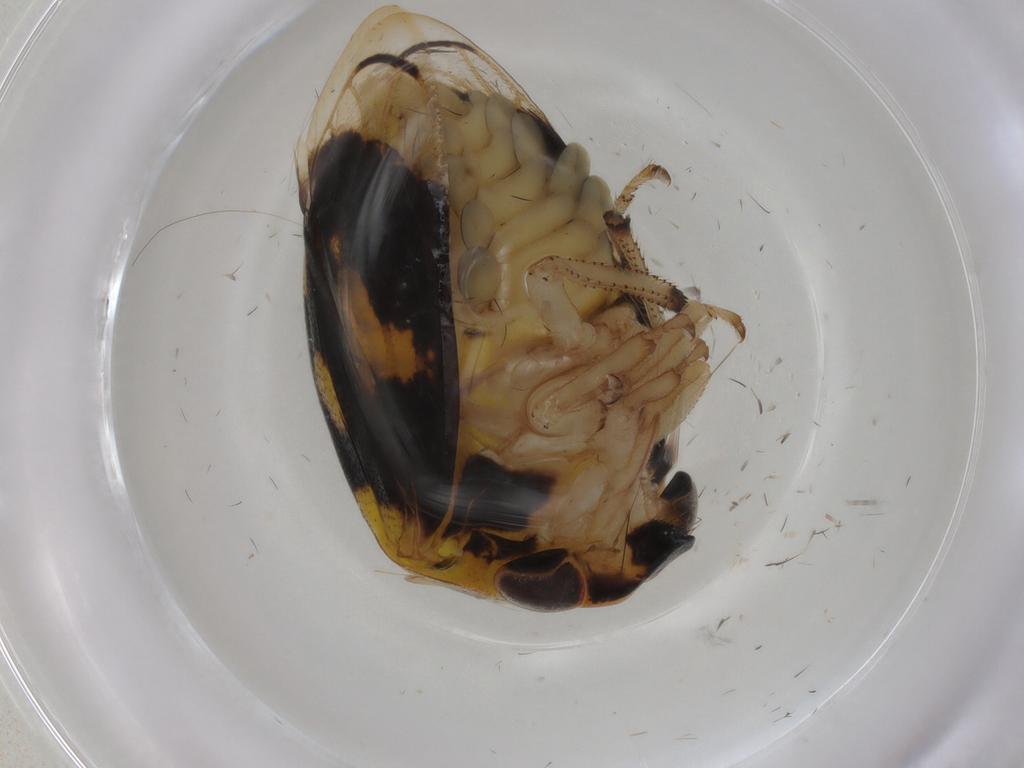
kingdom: Animalia
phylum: Arthropoda
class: Insecta
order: Hemiptera
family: Membracidae
